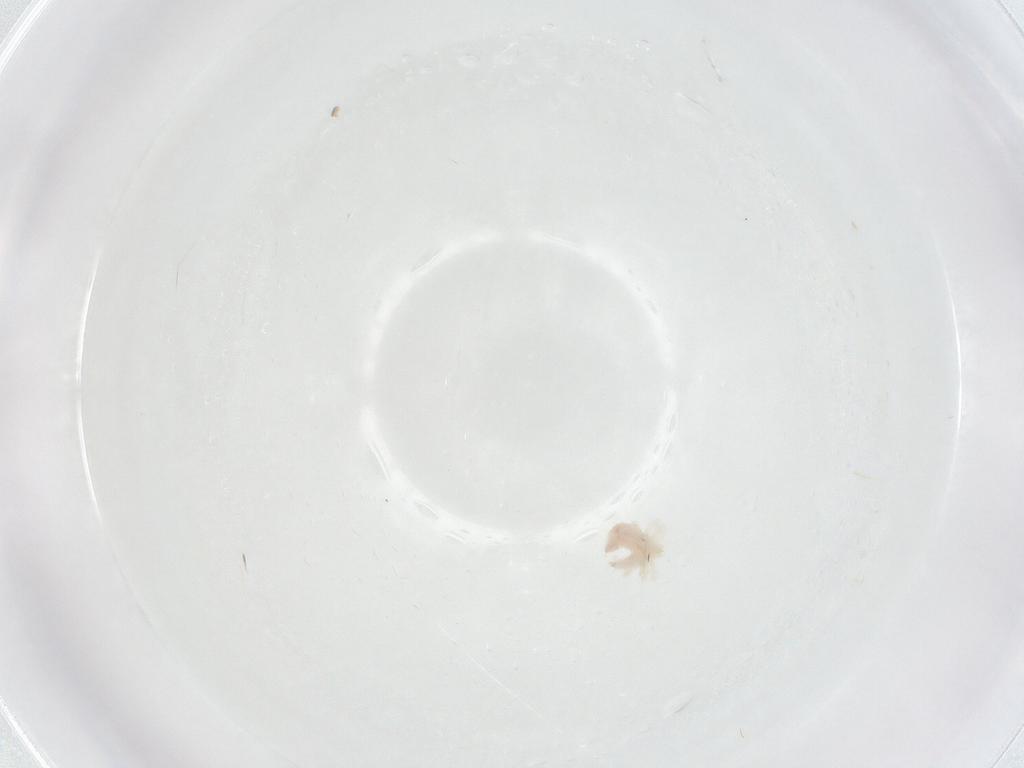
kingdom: Animalia
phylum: Arthropoda
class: Arachnida
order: Trombidiformes
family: Anystidae
